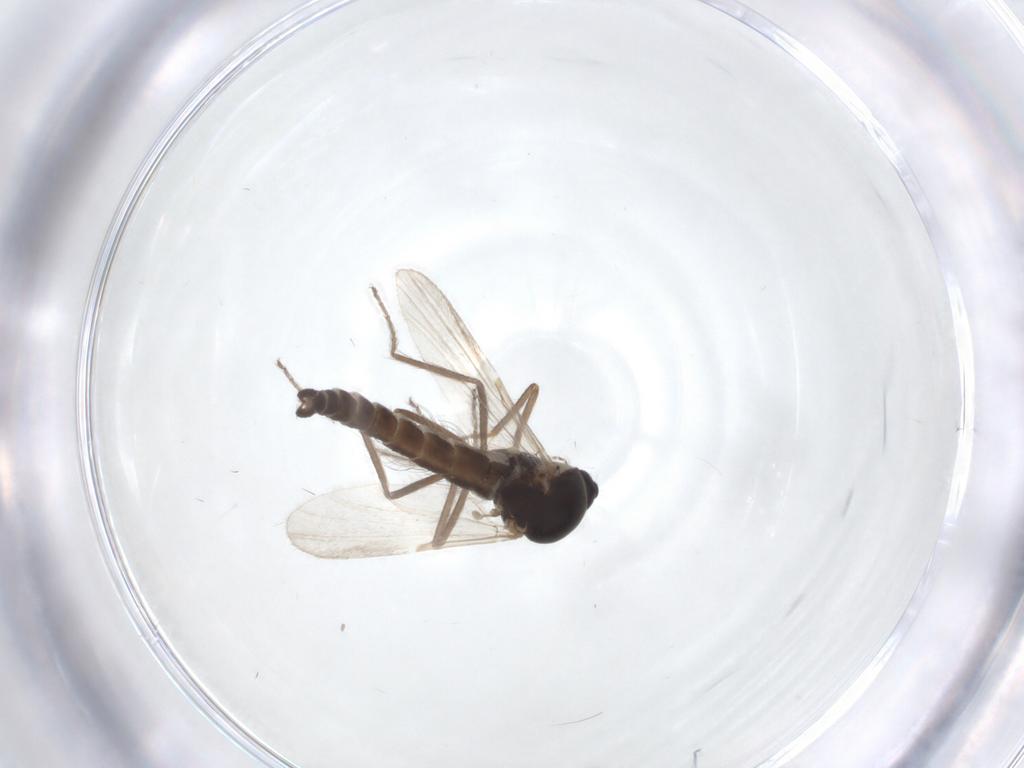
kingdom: Animalia
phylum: Arthropoda
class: Insecta
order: Diptera
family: Ceratopogonidae
